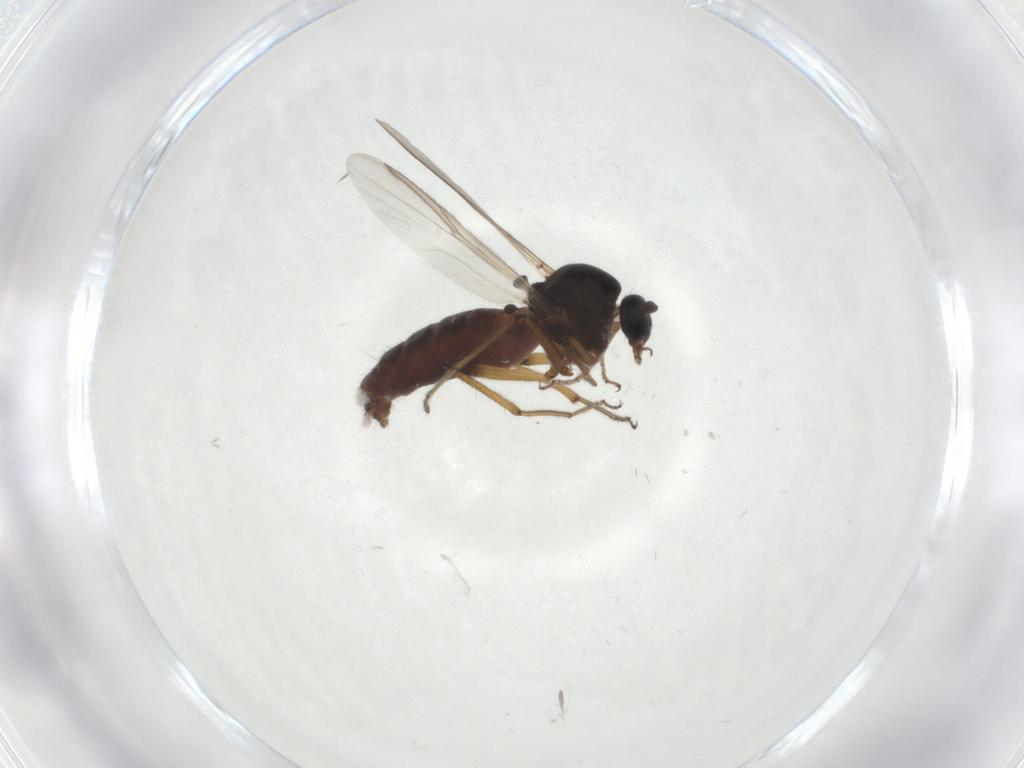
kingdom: Animalia
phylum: Arthropoda
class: Insecta
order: Diptera
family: Ceratopogonidae
